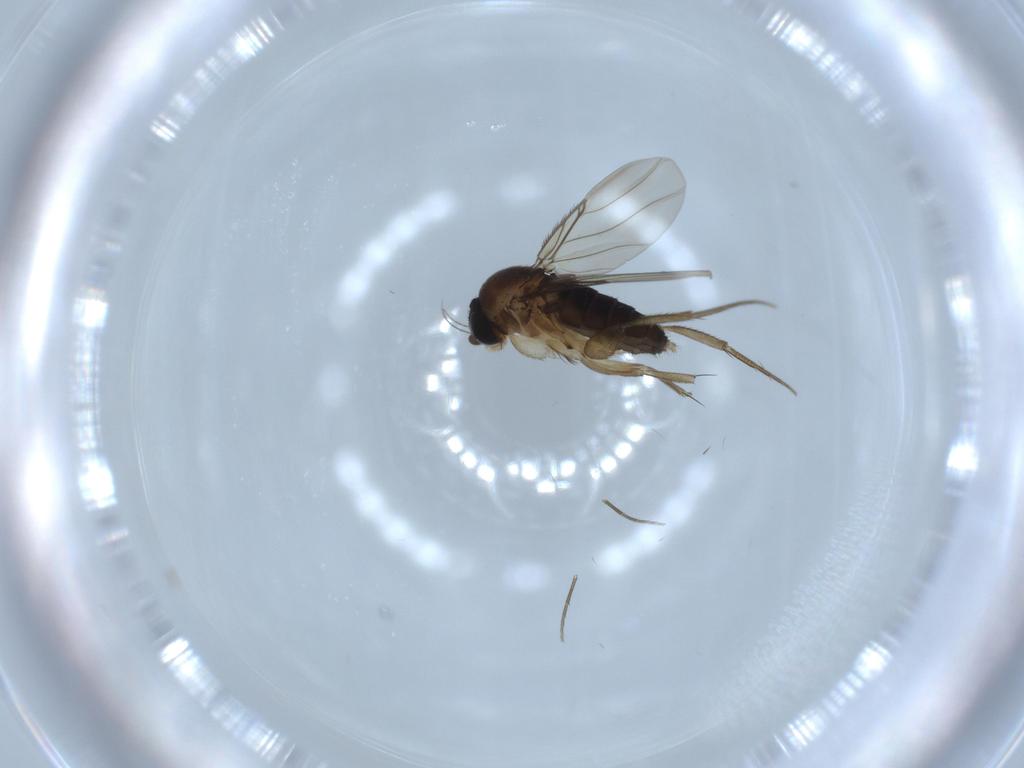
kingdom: Animalia
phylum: Arthropoda
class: Insecta
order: Diptera
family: Phoridae
